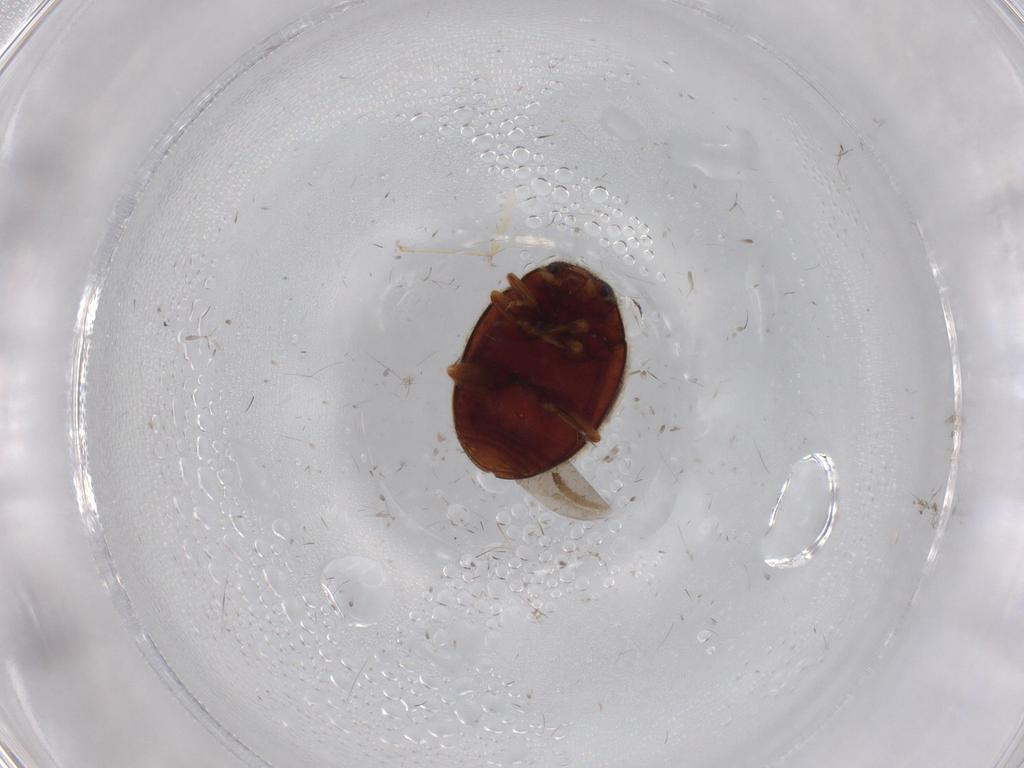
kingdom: Animalia
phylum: Arthropoda
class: Insecta
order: Coleoptera
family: Coccinellidae
